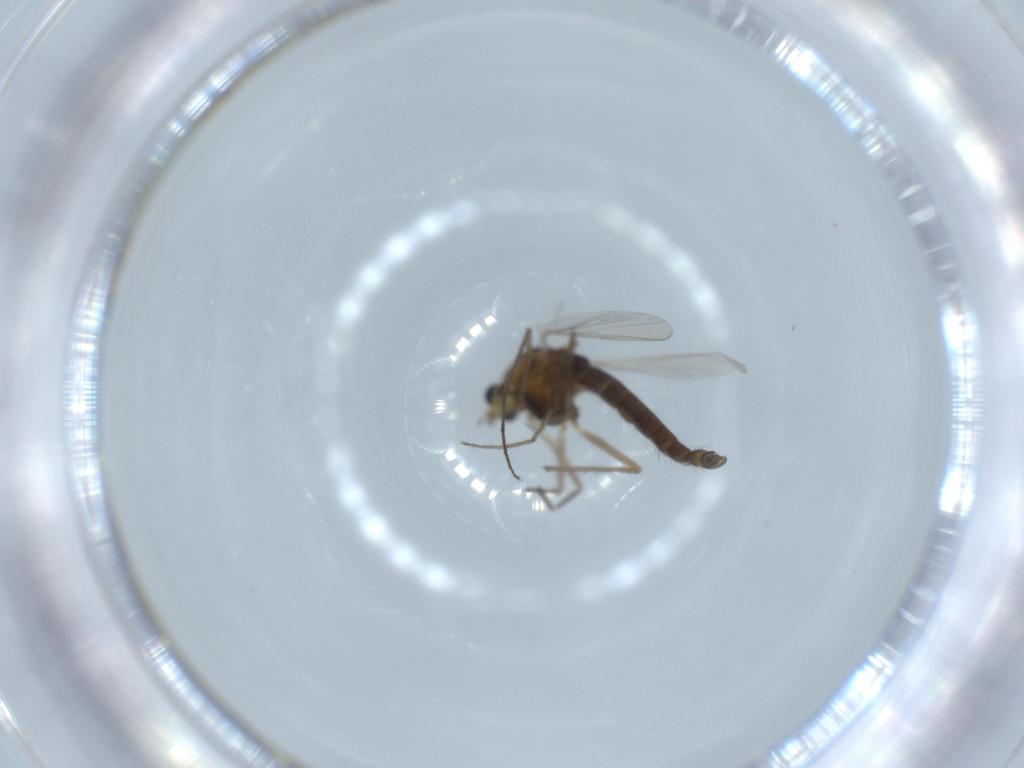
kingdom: Animalia
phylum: Arthropoda
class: Insecta
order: Diptera
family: Chironomidae
